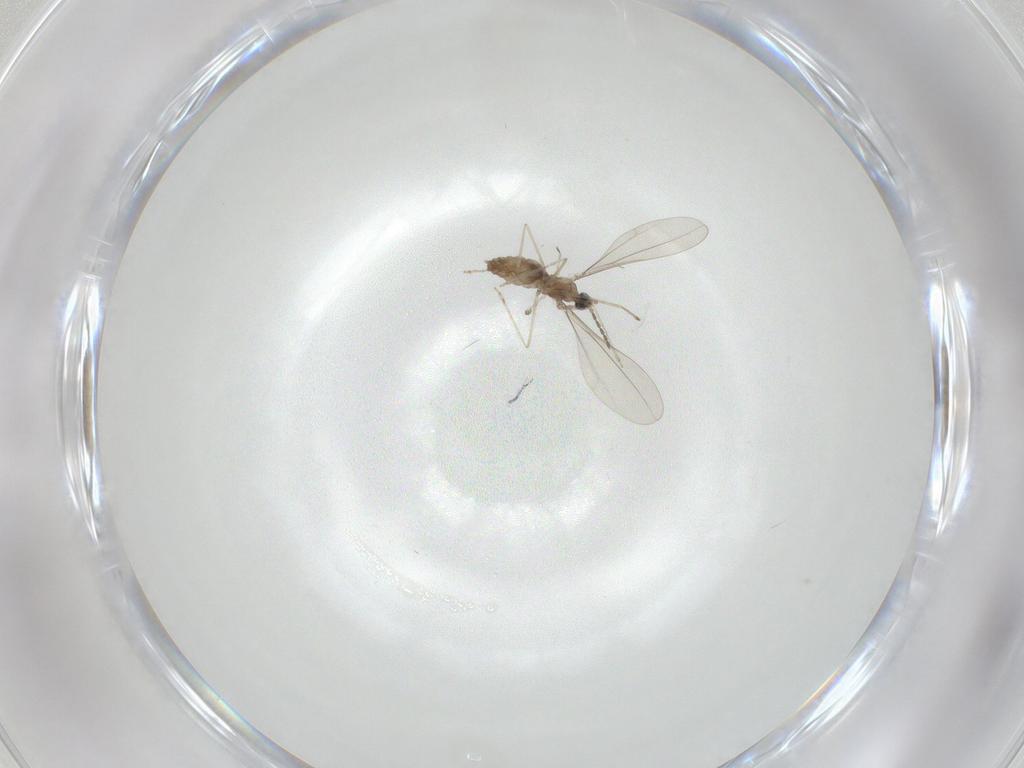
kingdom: Animalia
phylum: Arthropoda
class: Insecta
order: Diptera
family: Cecidomyiidae
